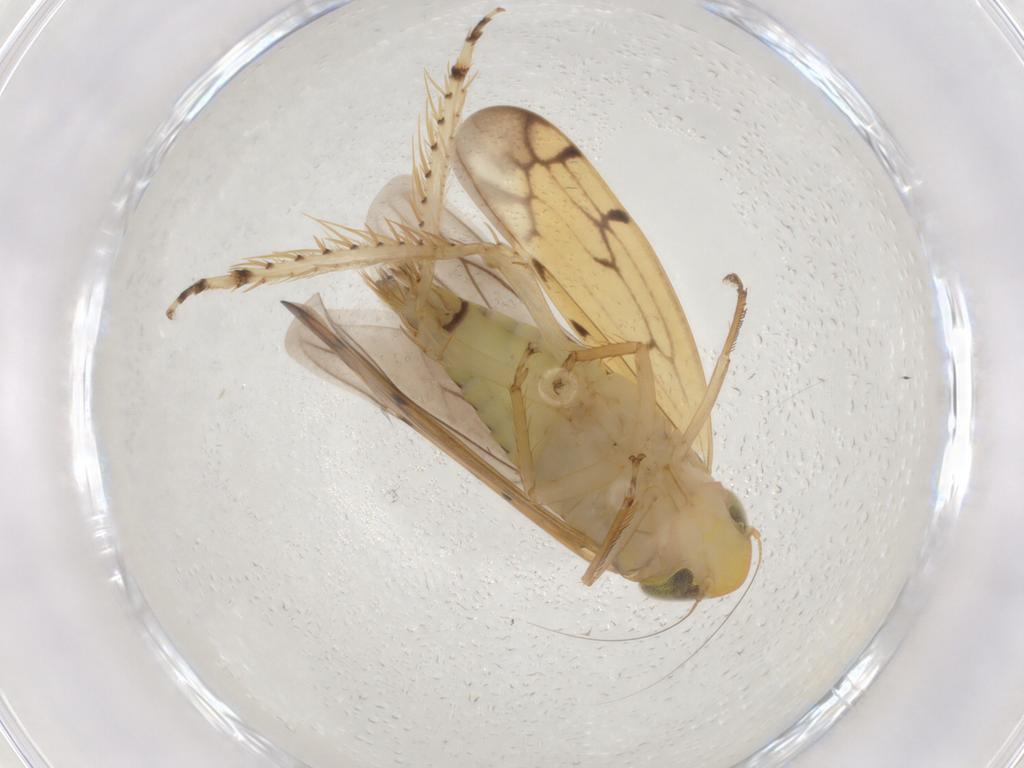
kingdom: Animalia
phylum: Arthropoda
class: Insecta
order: Hemiptera
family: Cicadellidae
